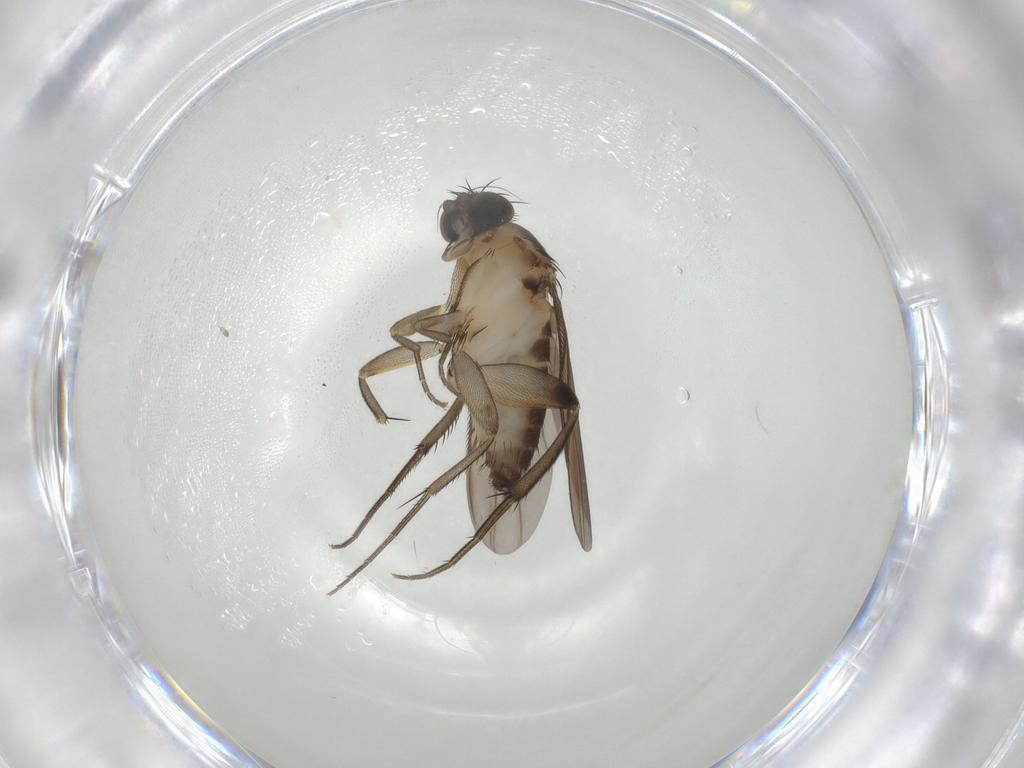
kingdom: Animalia
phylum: Arthropoda
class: Insecta
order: Diptera
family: Phoridae
